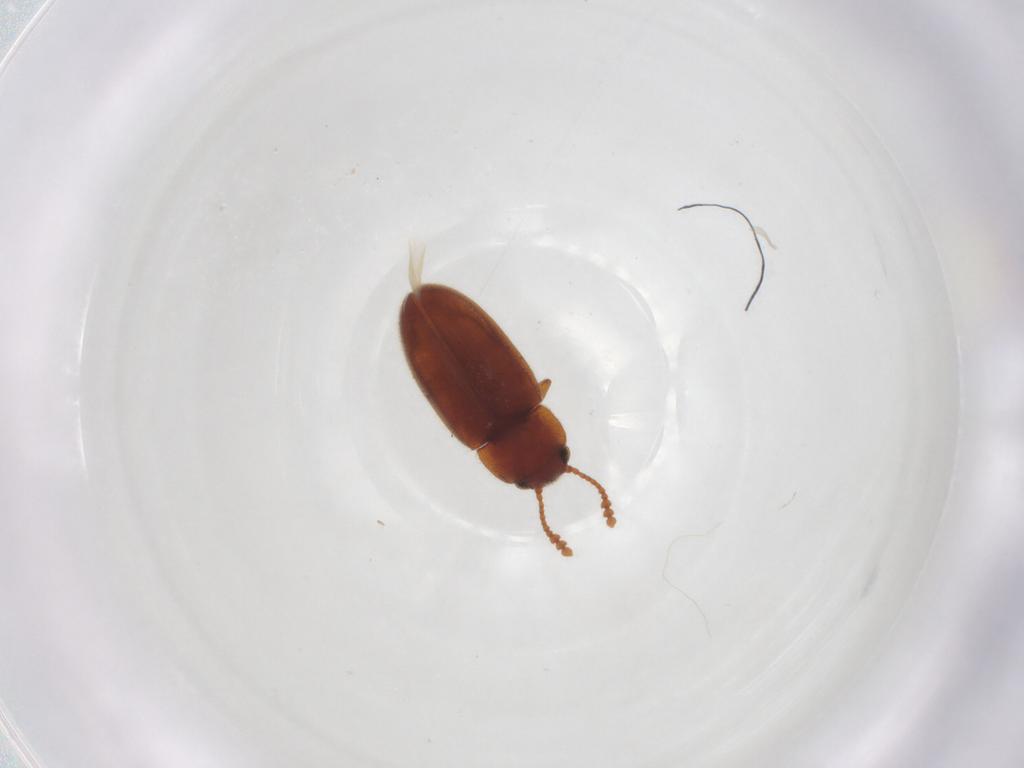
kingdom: Animalia
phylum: Arthropoda
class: Insecta
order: Coleoptera
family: Erotylidae
